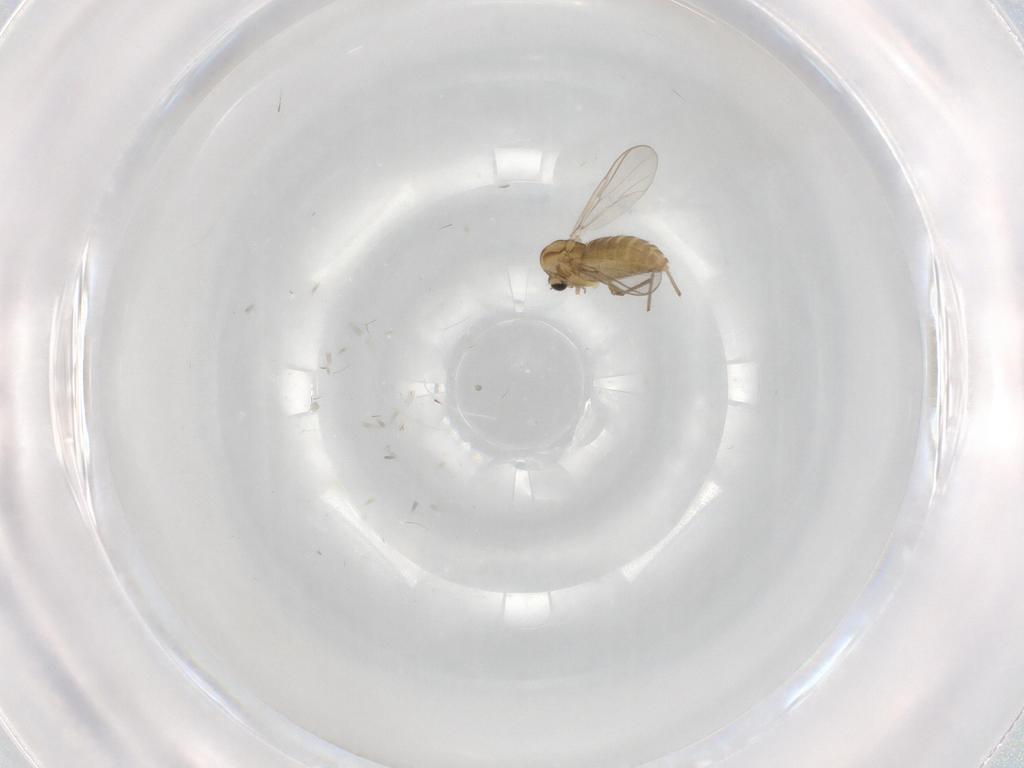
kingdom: Animalia
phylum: Arthropoda
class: Insecta
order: Diptera
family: Chironomidae
